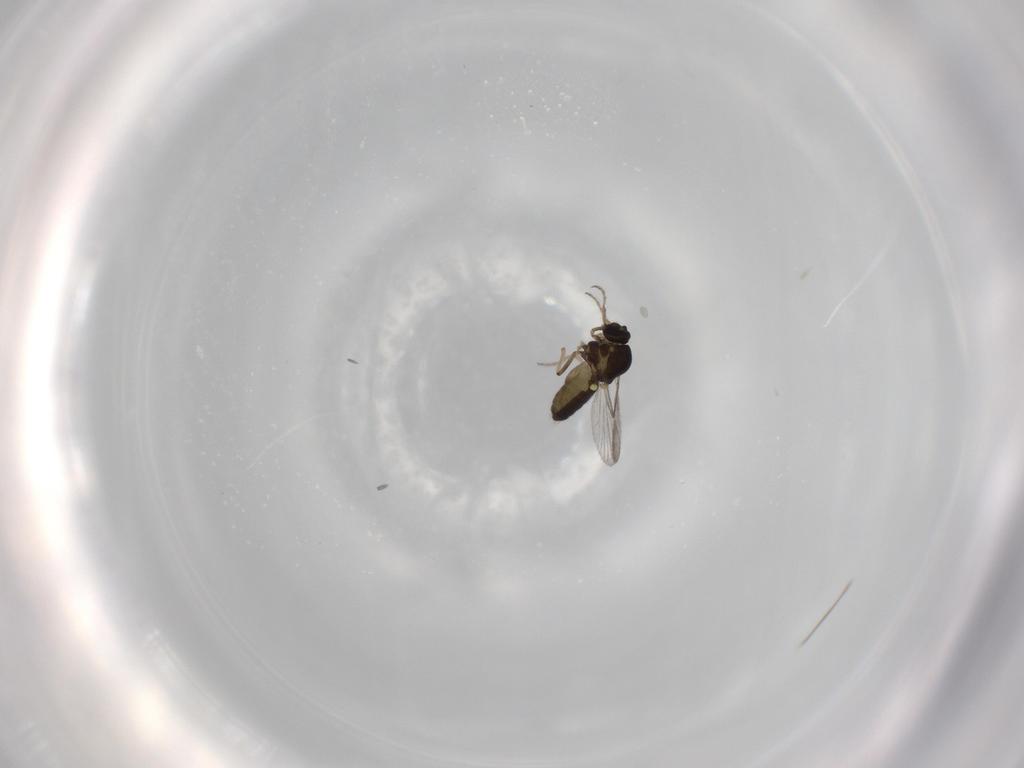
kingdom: Animalia
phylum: Arthropoda
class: Insecta
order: Diptera
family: Ceratopogonidae
